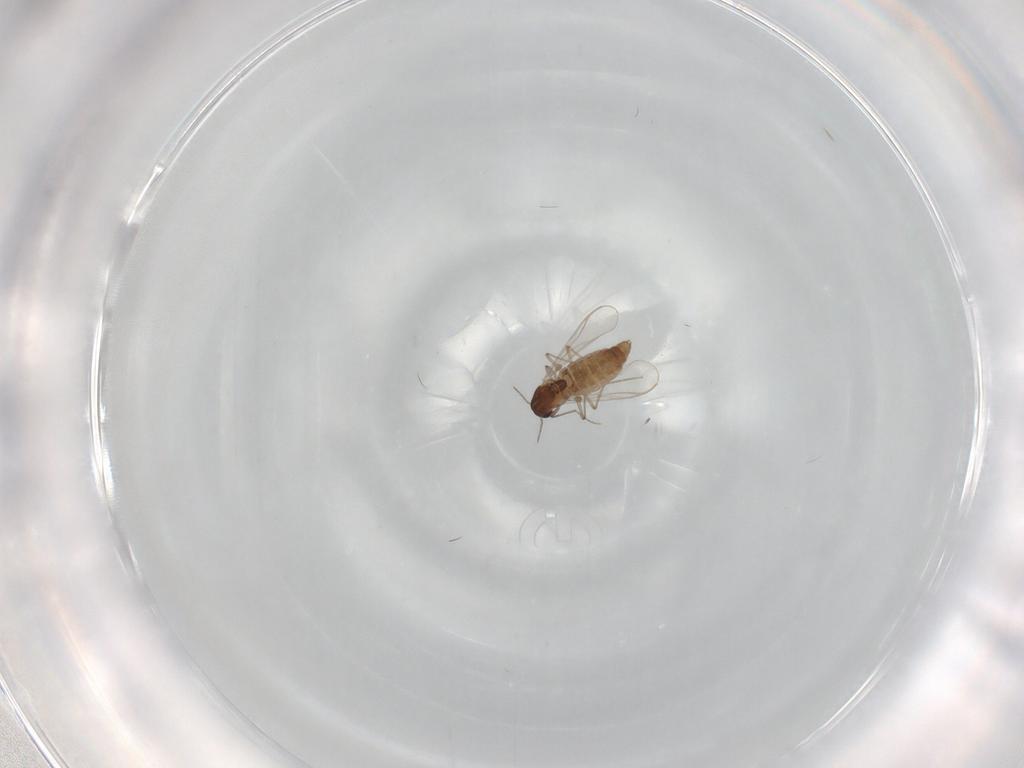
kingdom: Animalia
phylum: Arthropoda
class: Insecta
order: Diptera
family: Chironomidae
